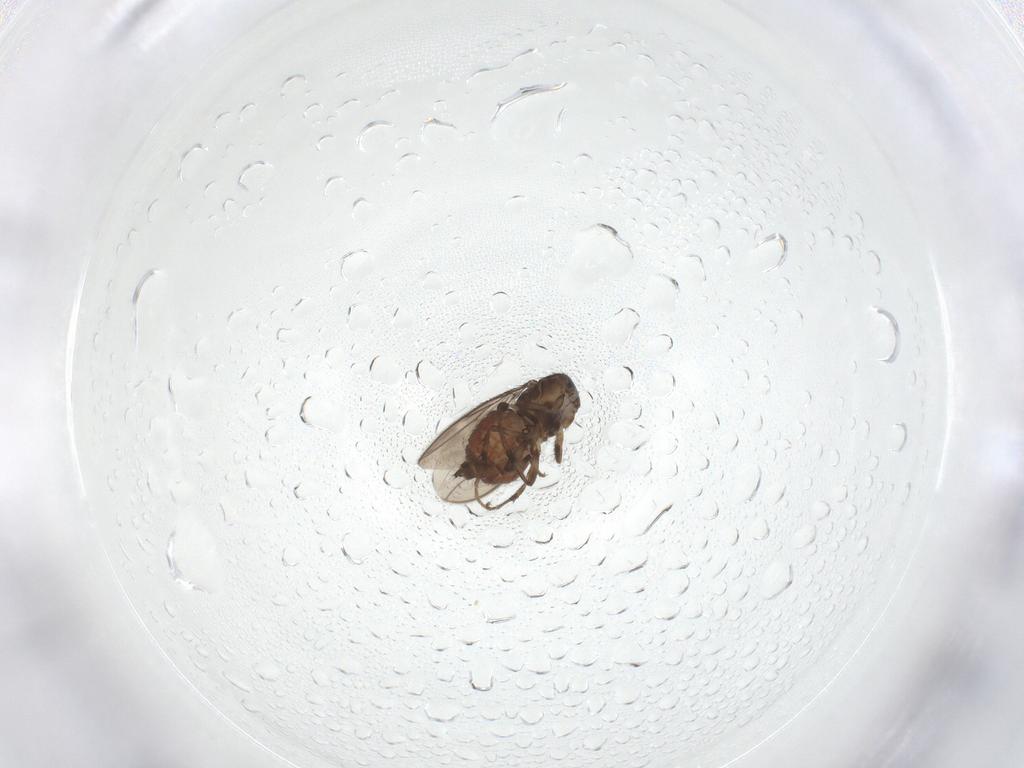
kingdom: Animalia
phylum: Arthropoda
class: Insecta
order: Diptera
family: Sphaeroceridae
